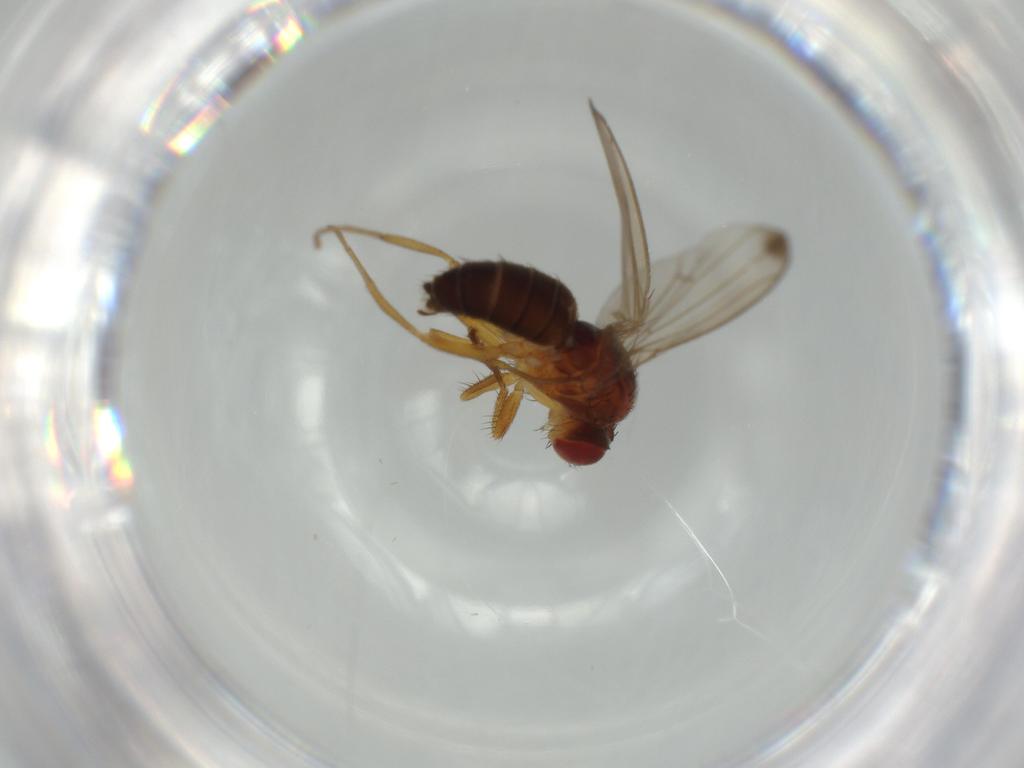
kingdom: Animalia
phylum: Arthropoda
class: Insecta
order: Diptera
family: Drosophilidae
